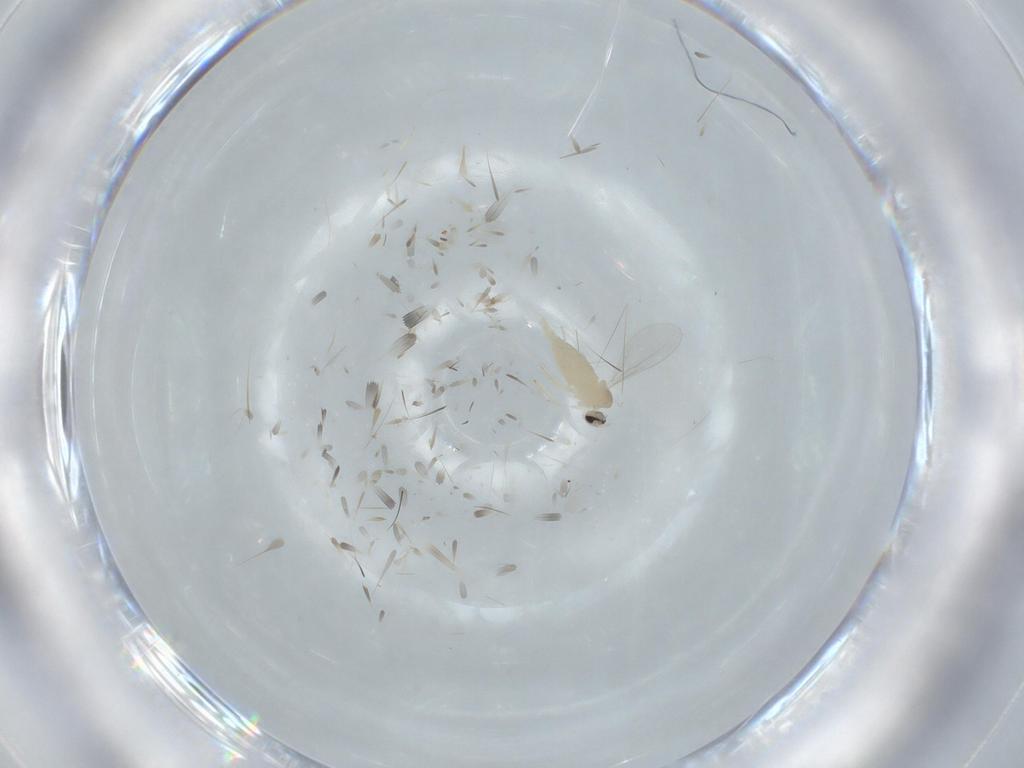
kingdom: Animalia
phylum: Arthropoda
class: Insecta
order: Diptera
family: Cecidomyiidae
